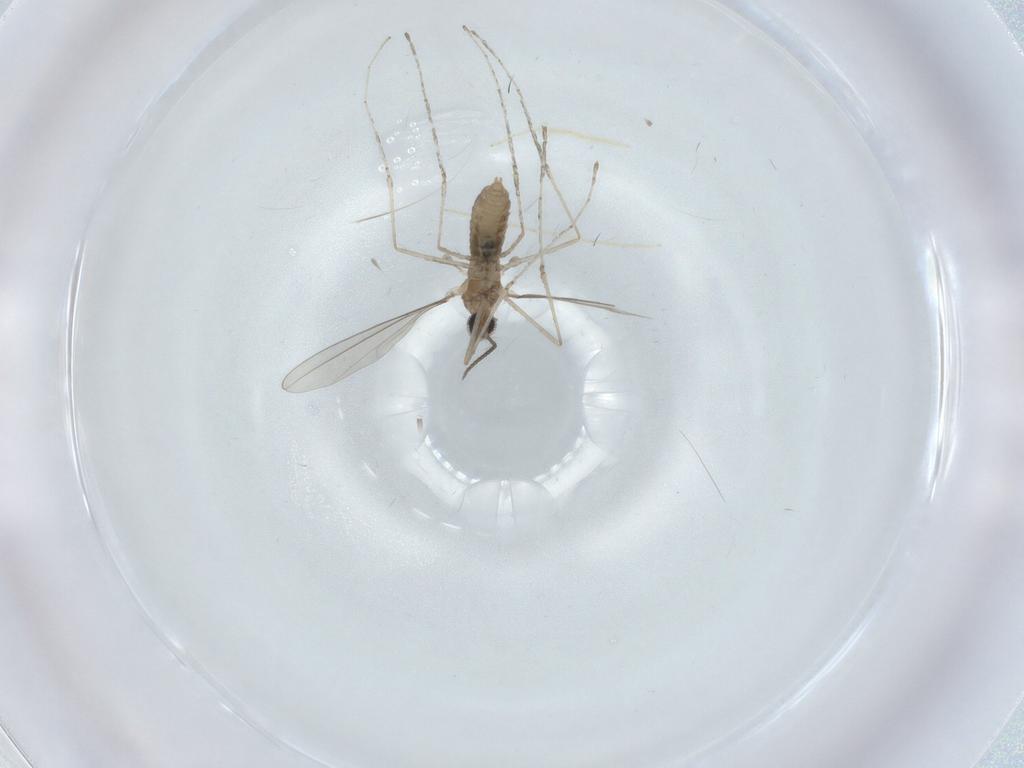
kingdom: Animalia
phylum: Arthropoda
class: Insecta
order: Diptera
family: Cecidomyiidae
